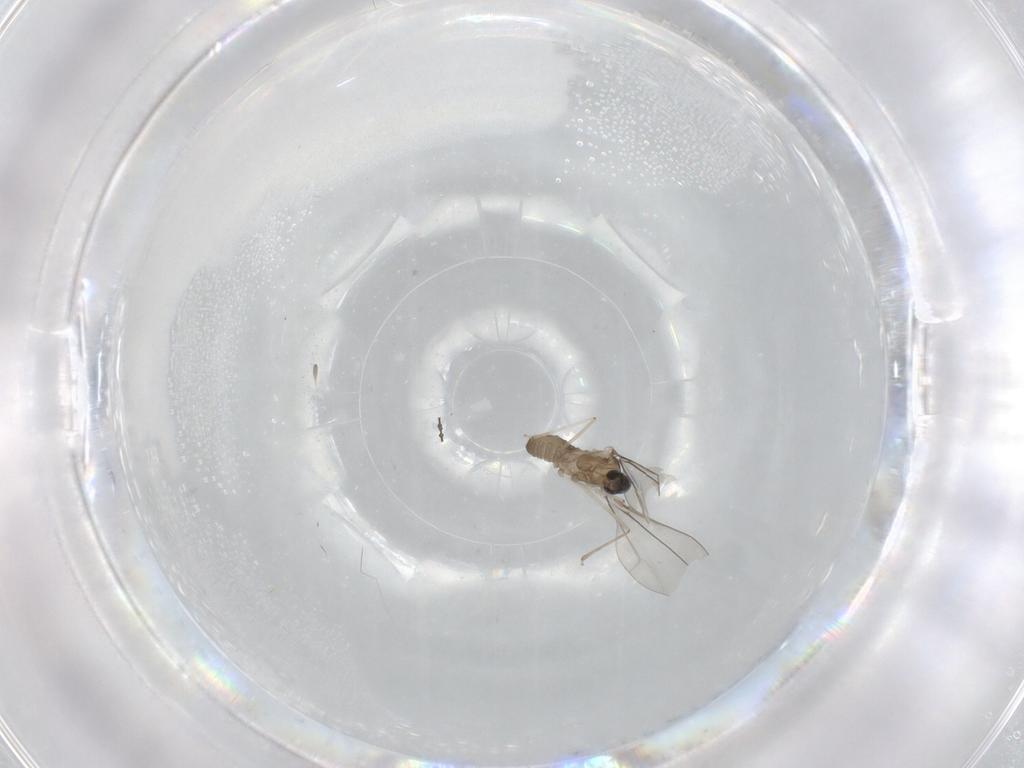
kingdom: Animalia
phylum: Arthropoda
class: Insecta
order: Diptera
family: Cecidomyiidae
